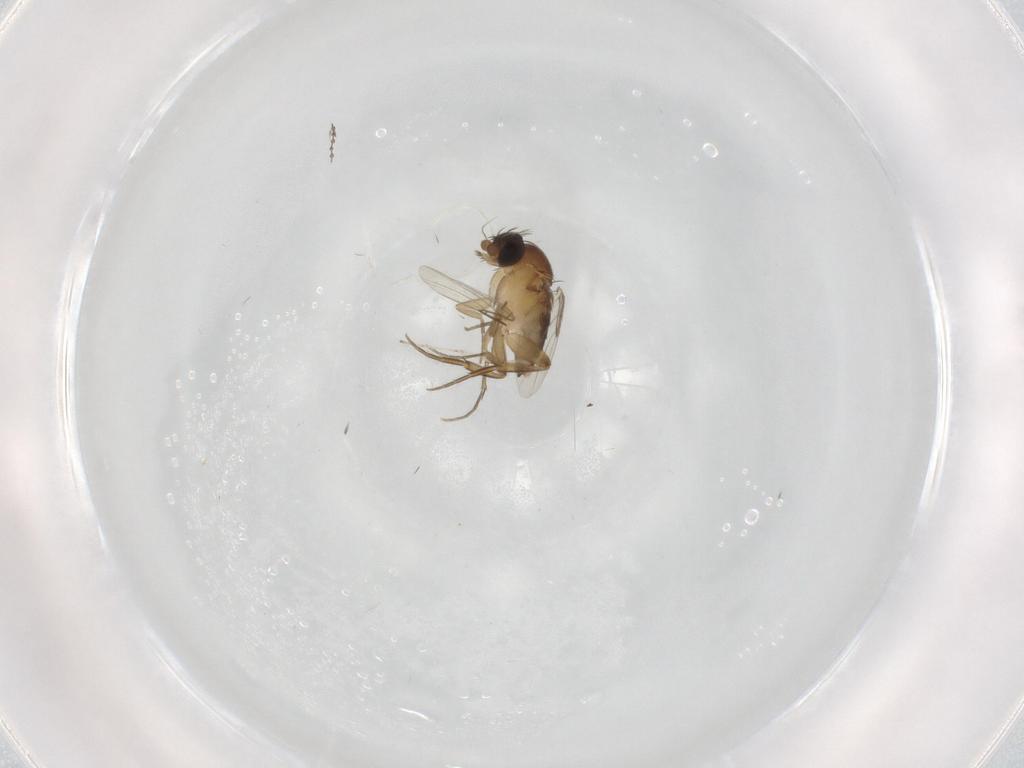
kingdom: Animalia
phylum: Arthropoda
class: Insecta
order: Diptera
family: Phoridae
